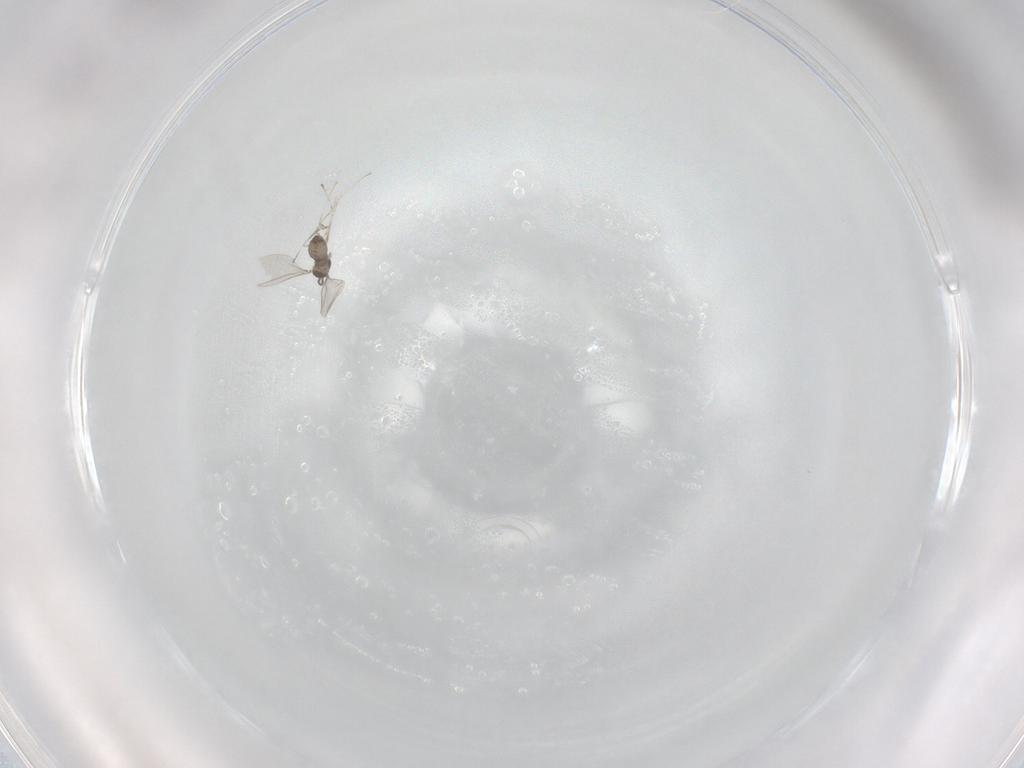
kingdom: Animalia
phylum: Arthropoda
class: Insecta
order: Diptera
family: Cecidomyiidae
